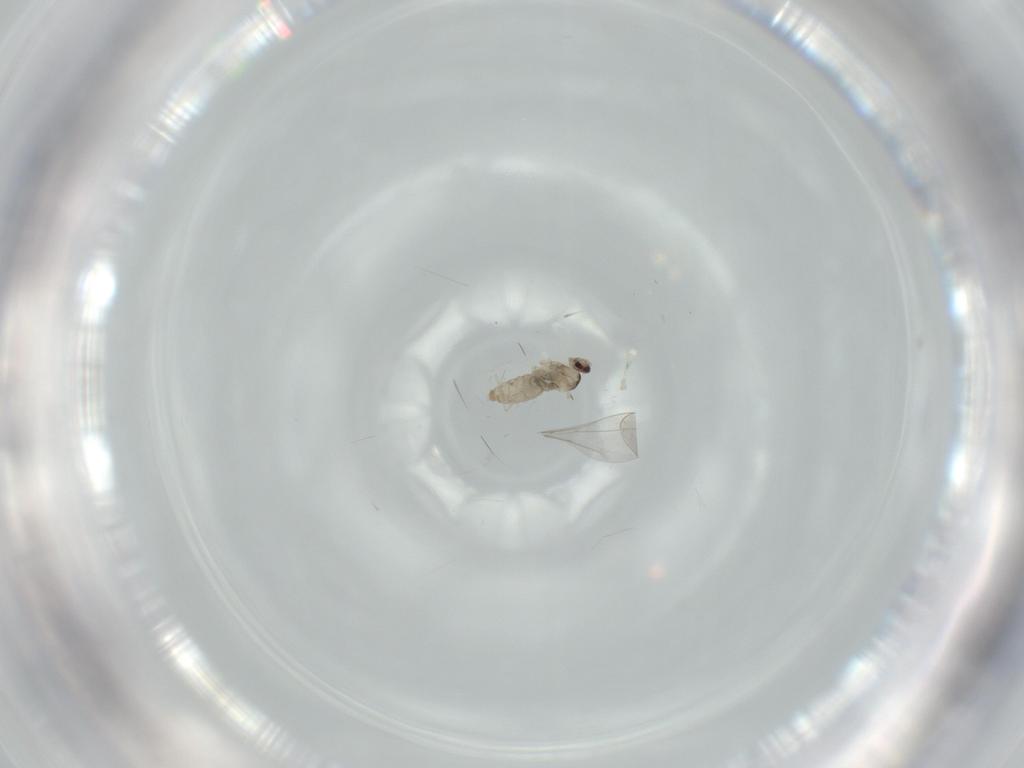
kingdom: Animalia
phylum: Arthropoda
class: Insecta
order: Diptera
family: Cecidomyiidae
